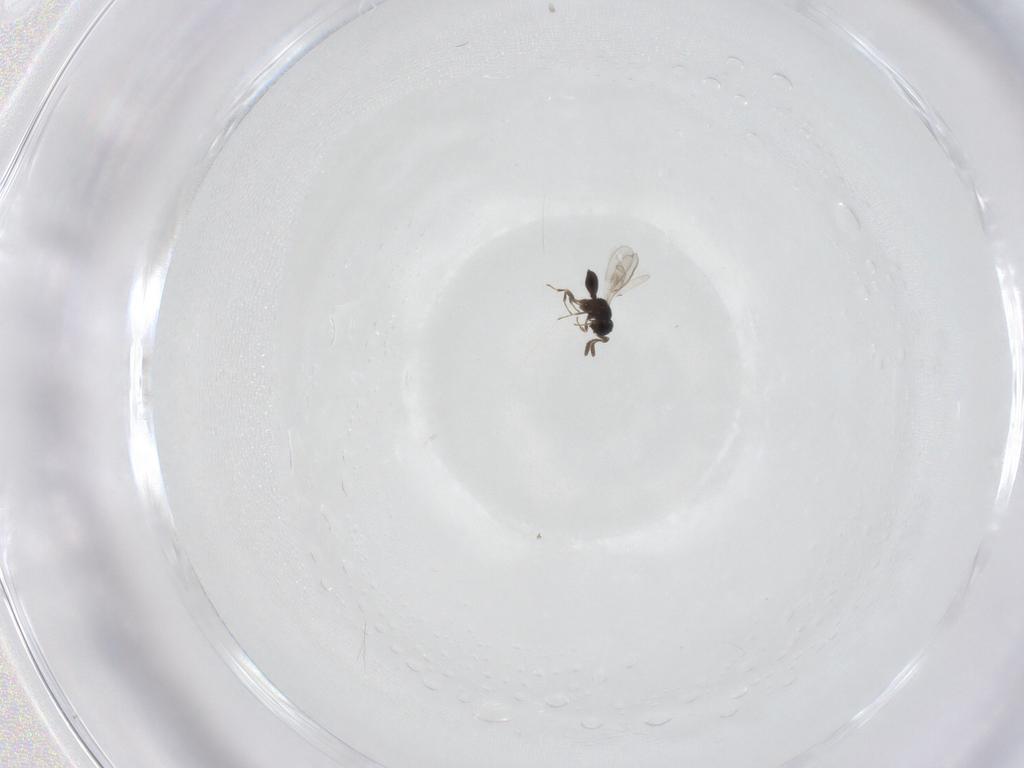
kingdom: Animalia
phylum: Arthropoda
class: Insecta
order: Hymenoptera
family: Scelionidae
